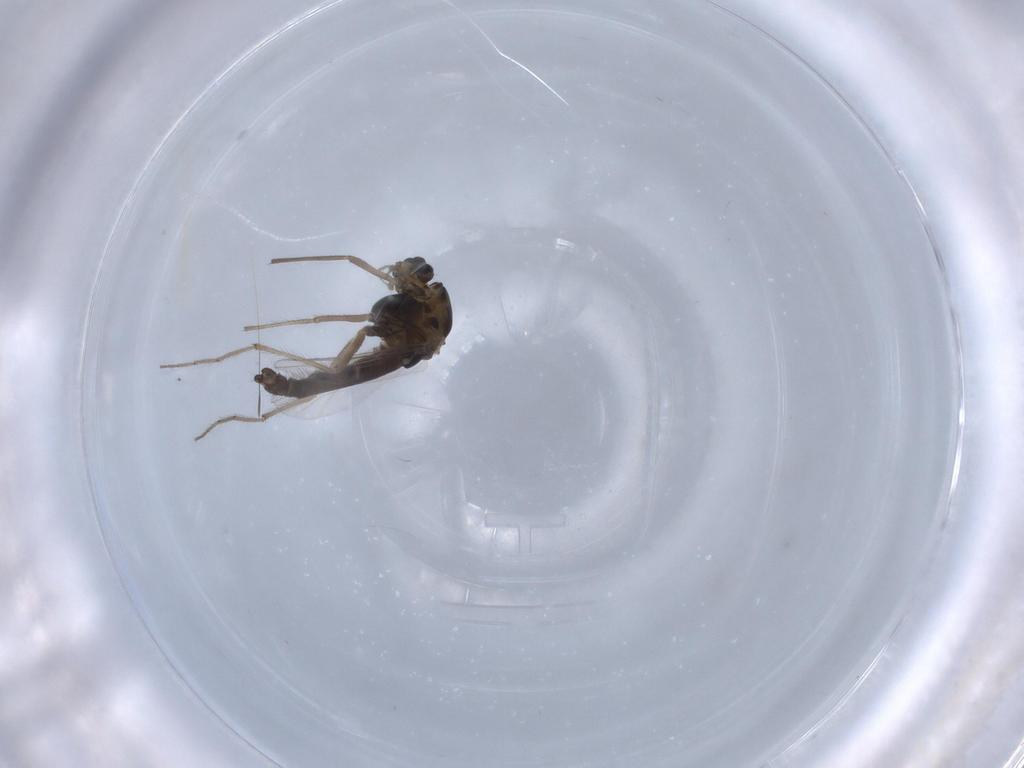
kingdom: Animalia
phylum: Arthropoda
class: Insecta
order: Diptera
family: Chironomidae
